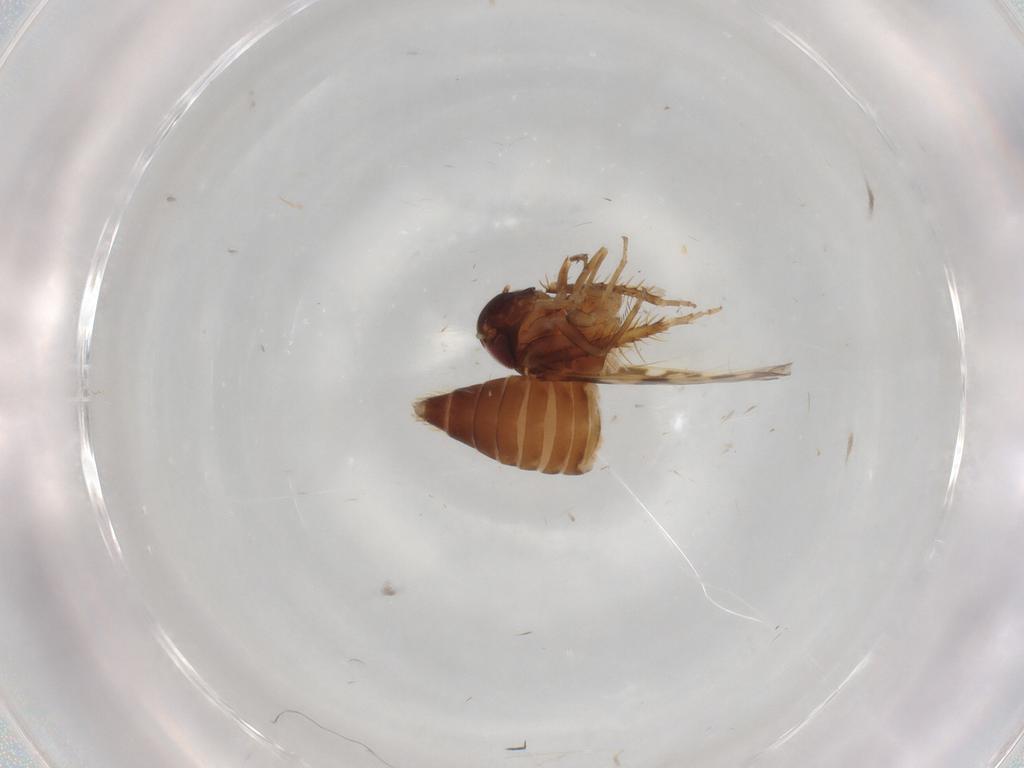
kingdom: Animalia
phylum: Arthropoda
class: Insecta
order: Hemiptera
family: Cicadellidae
